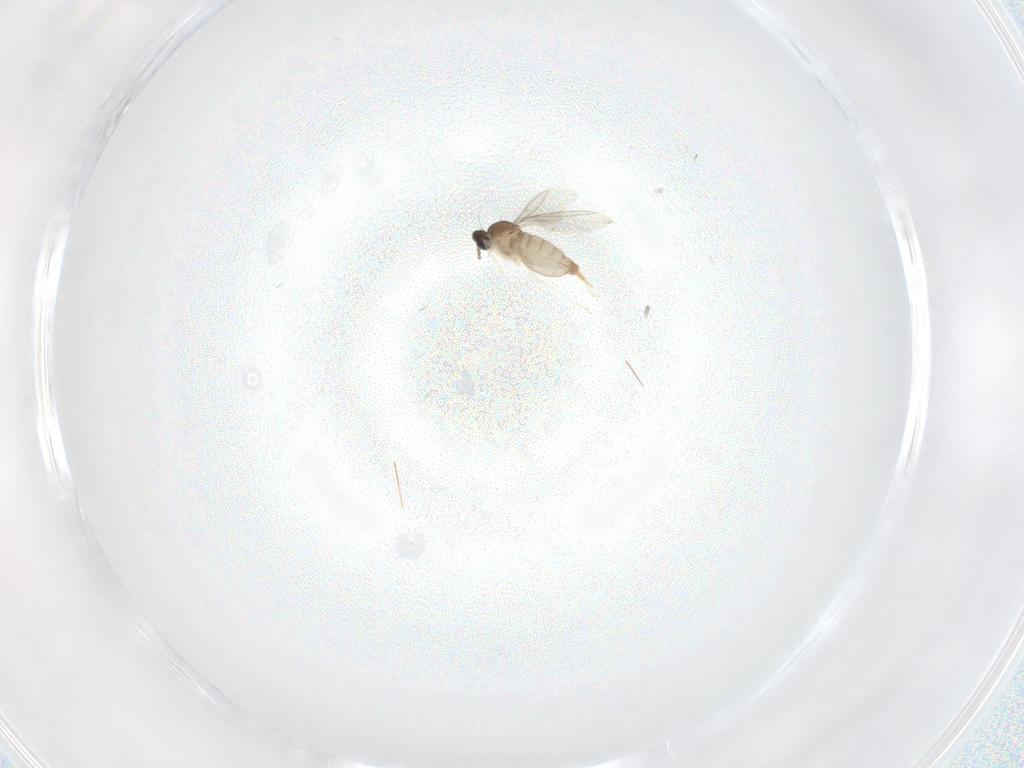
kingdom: Animalia
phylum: Arthropoda
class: Insecta
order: Diptera
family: Cecidomyiidae
